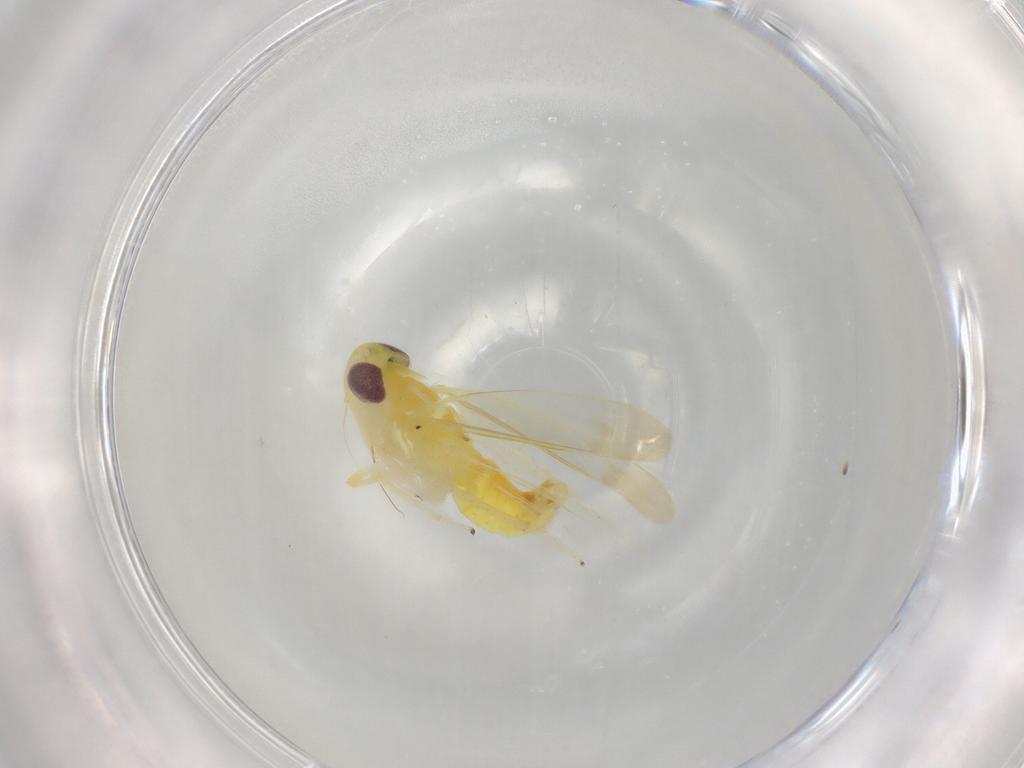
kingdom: Animalia
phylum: Arthropoda
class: Insecta
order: Hemiptera
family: Cicadellidae
